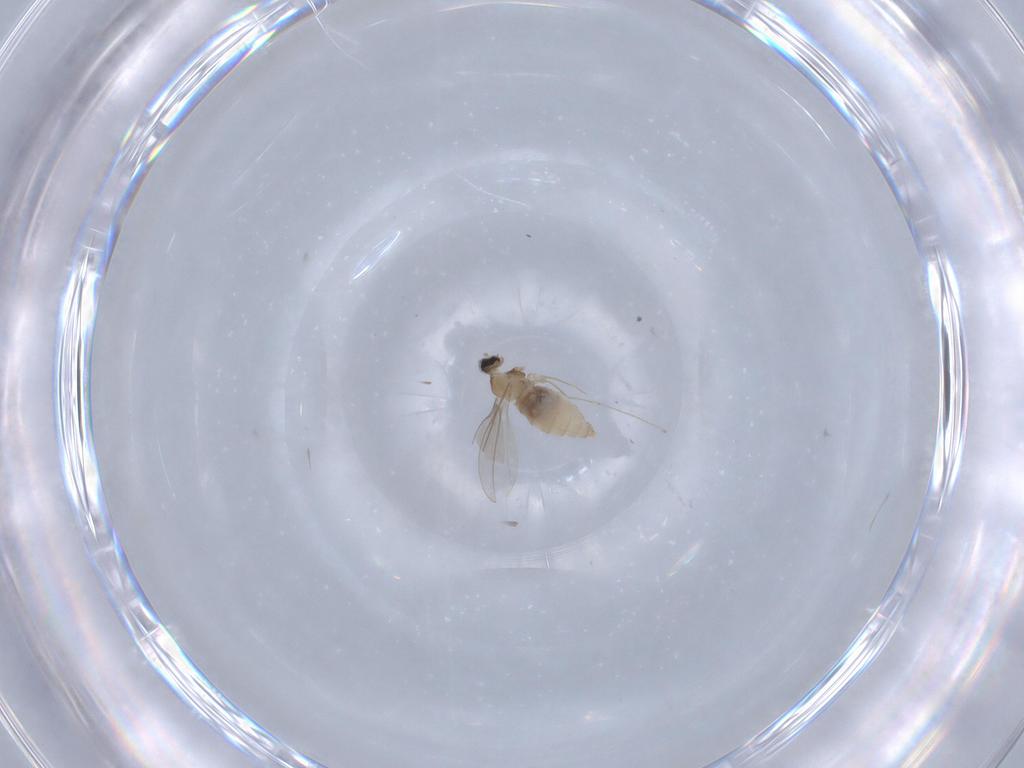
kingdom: Animalia
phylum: Arthropoda
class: Insecta
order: Diptera
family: Cecidomyiidae
